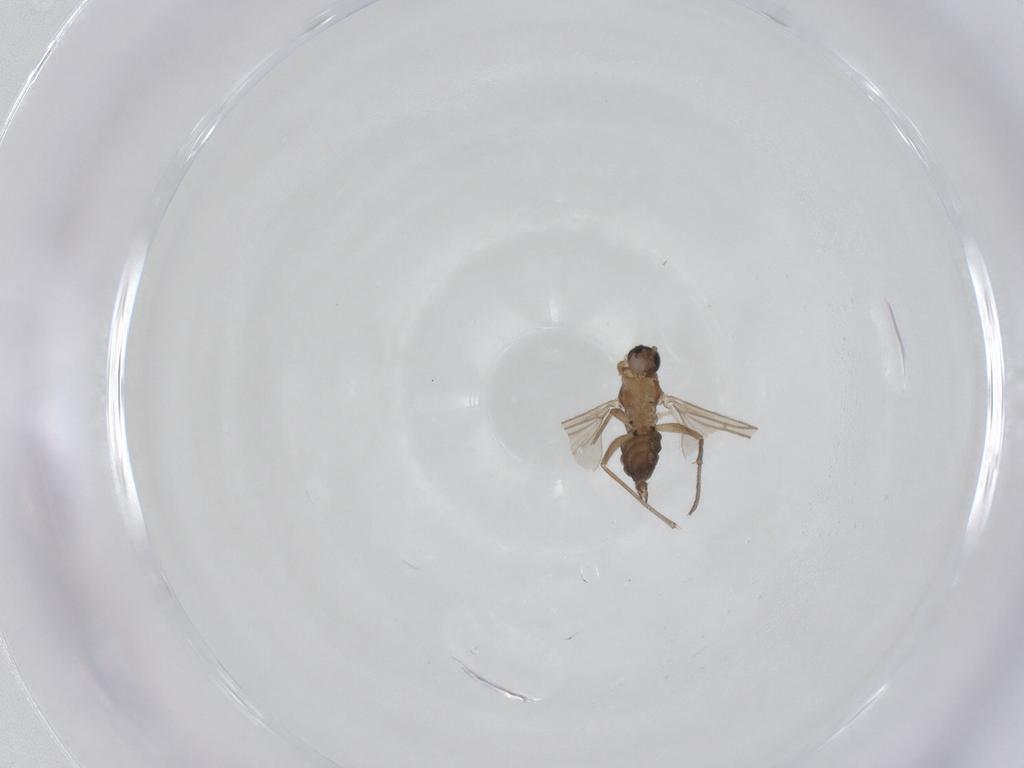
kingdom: Animalia
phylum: Arthropoda
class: Insecta
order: Diptera
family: Sciaridae
